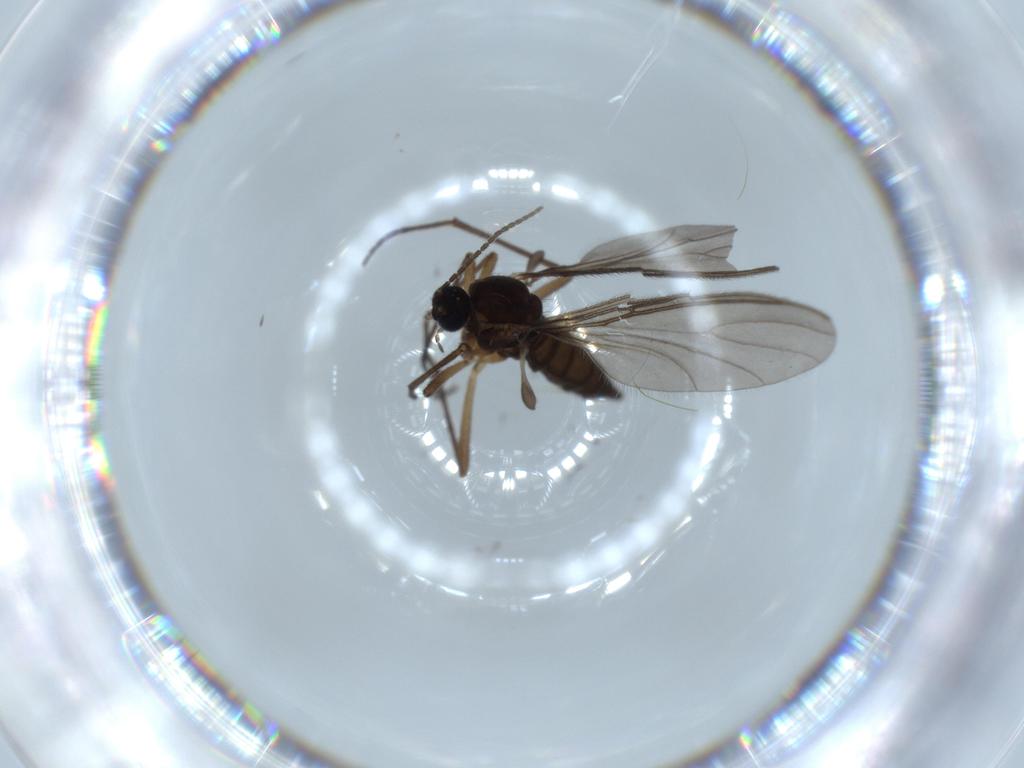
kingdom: Animalia
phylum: Arthropoda
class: Insecta
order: Diptera
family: Sciaridae
